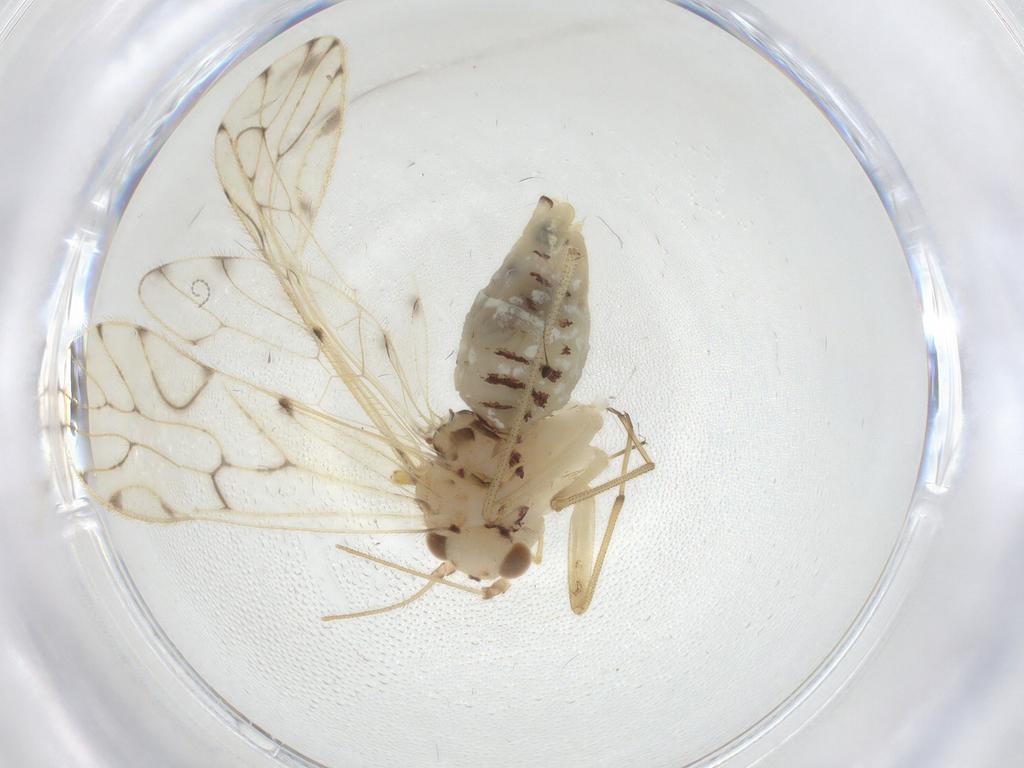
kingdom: Animalia
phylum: Arthropoda
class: Insecta
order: Psocodea
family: Epipsocidae
